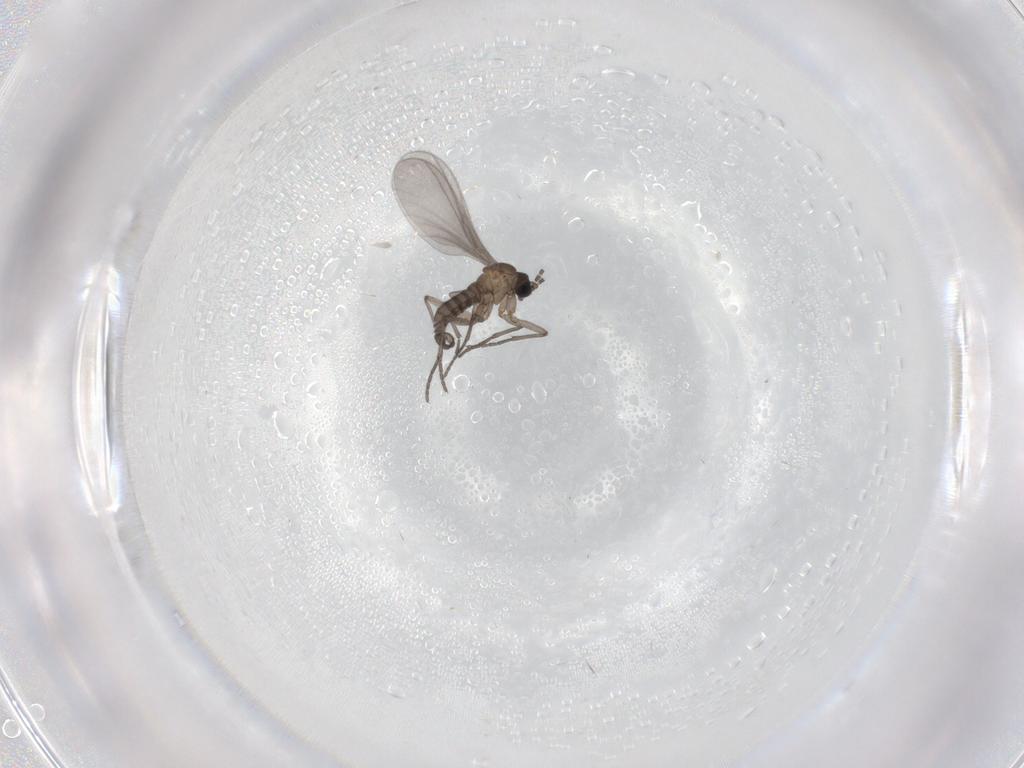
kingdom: Animalia
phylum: Arthropoda
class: Insecta
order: Diptera
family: Sciaridae
